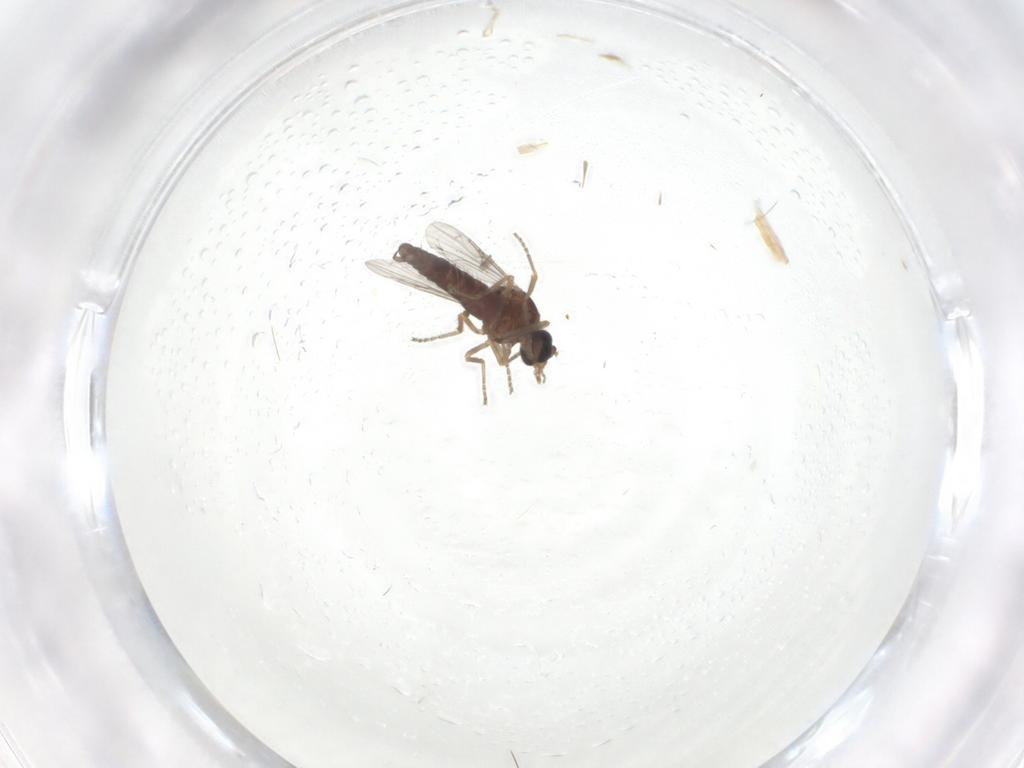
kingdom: Animalia
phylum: Arthropoda
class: Insecta
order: Diptera
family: Ceratopogonidae
